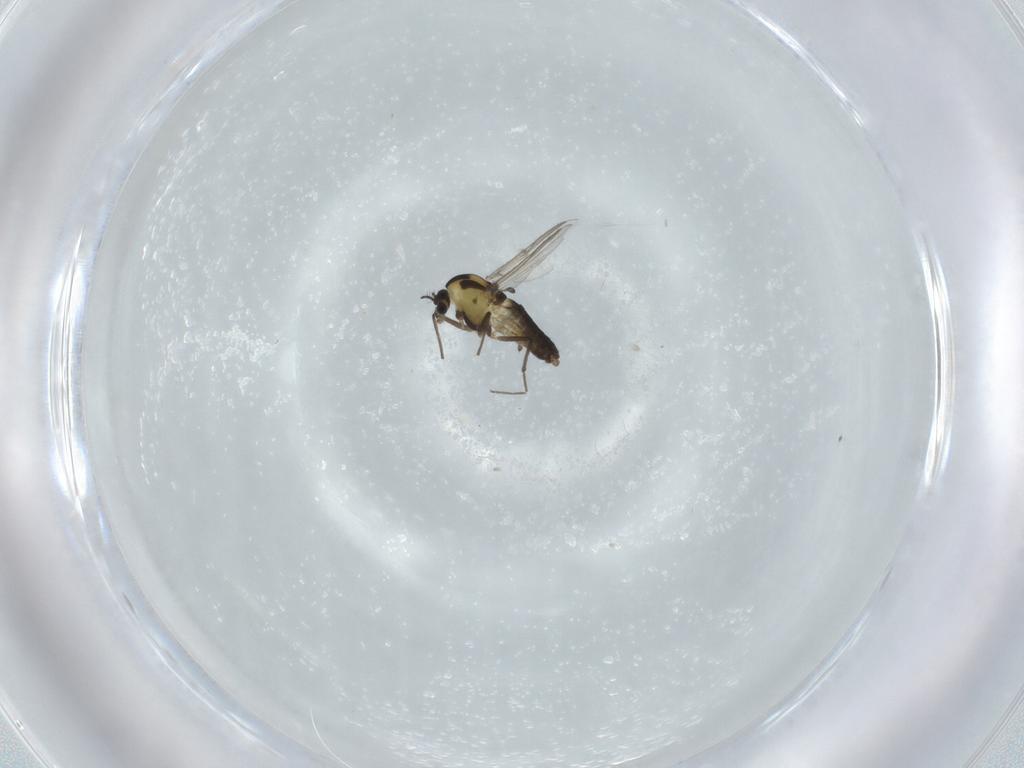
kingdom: Animalia
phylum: Arthropoda
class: Insecta
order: Diptera
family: Chironomidae
